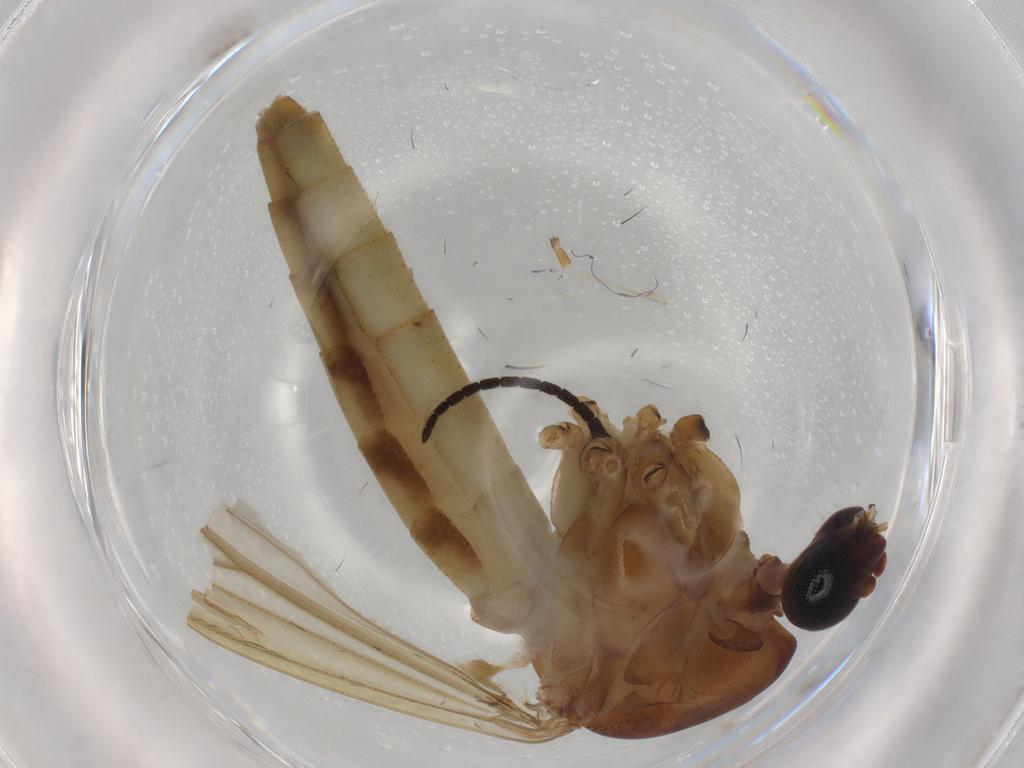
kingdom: Animalia
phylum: Arthropoda
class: Insecta
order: Diptera
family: Culicidae
